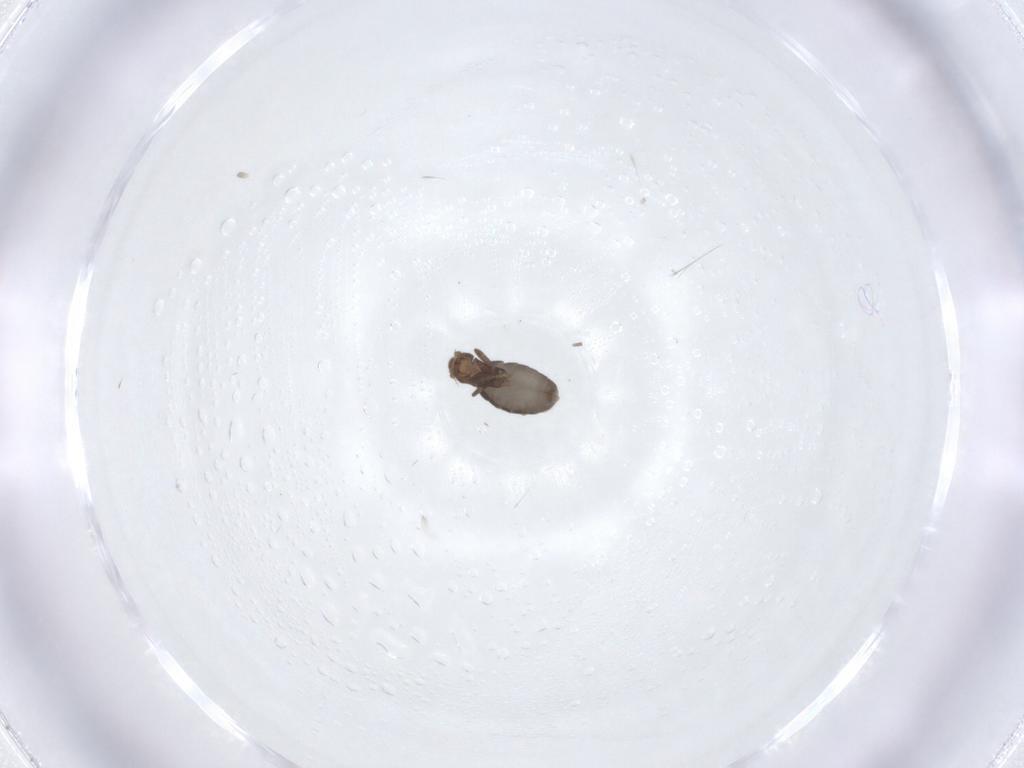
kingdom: Animalia
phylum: Arthropoda
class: Insecta
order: Diptera
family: Phoridae
